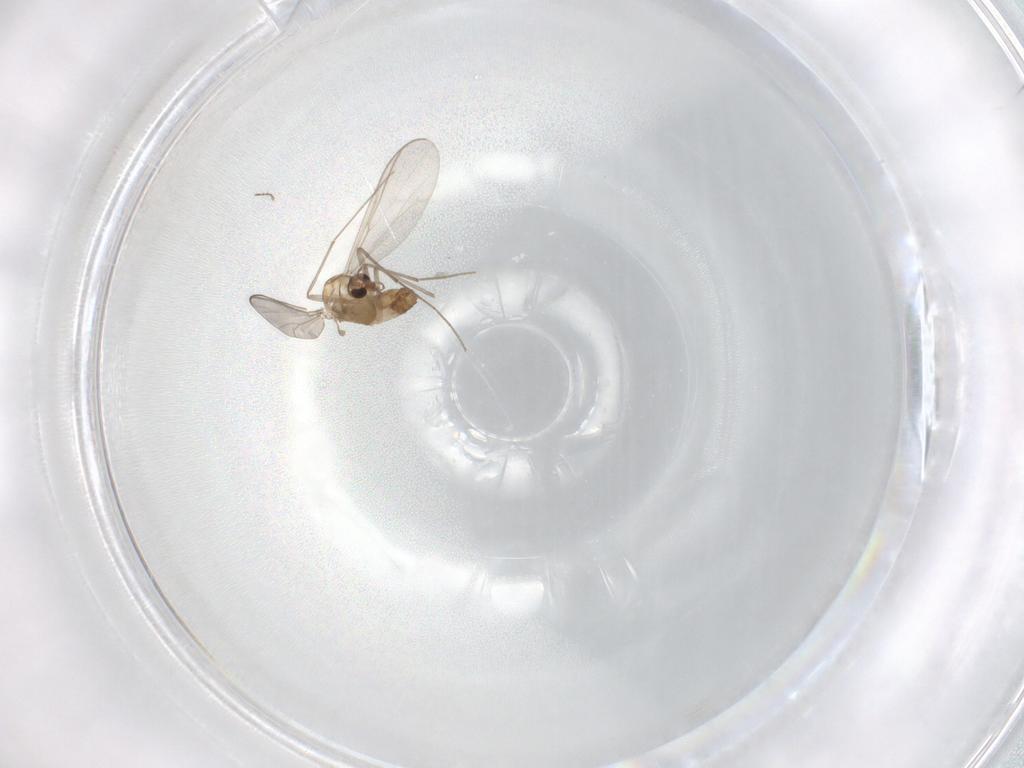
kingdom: Animalia
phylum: Arthropoda
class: Insecta
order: Diptera
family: Chironomidae
